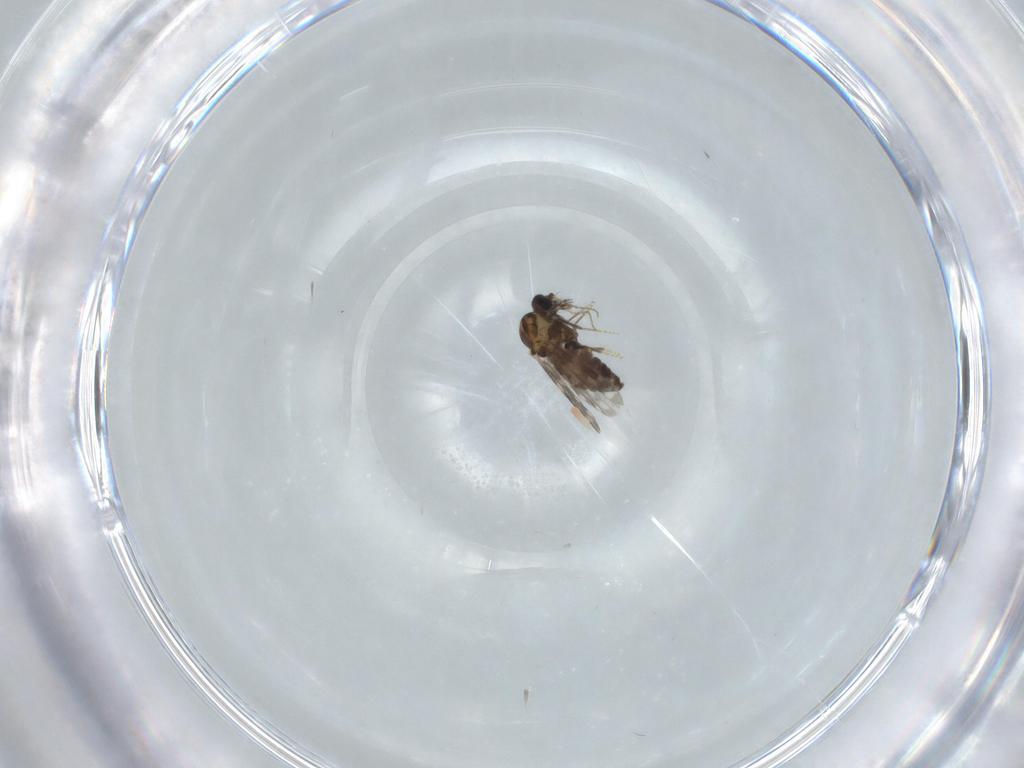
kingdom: Animalia
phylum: Arthropoda
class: Insecta
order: Diptera
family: Ceratopogonidae
